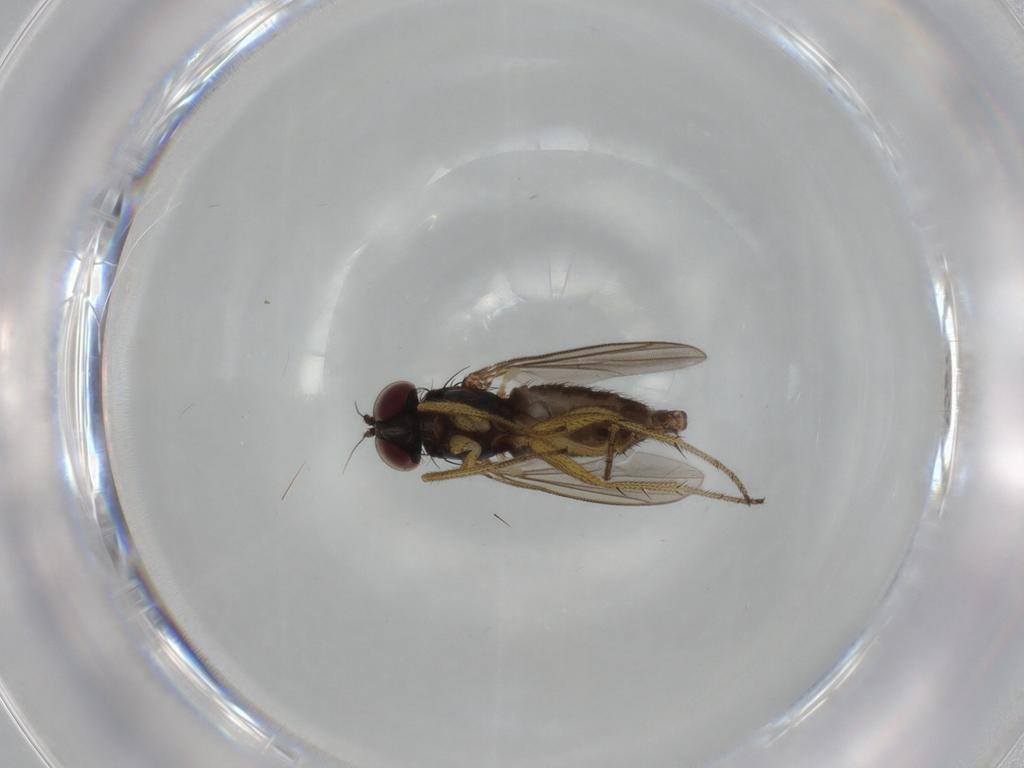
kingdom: Animalia
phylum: Arthropoda
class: Insecta
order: Diptera
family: Dolichopodidae
